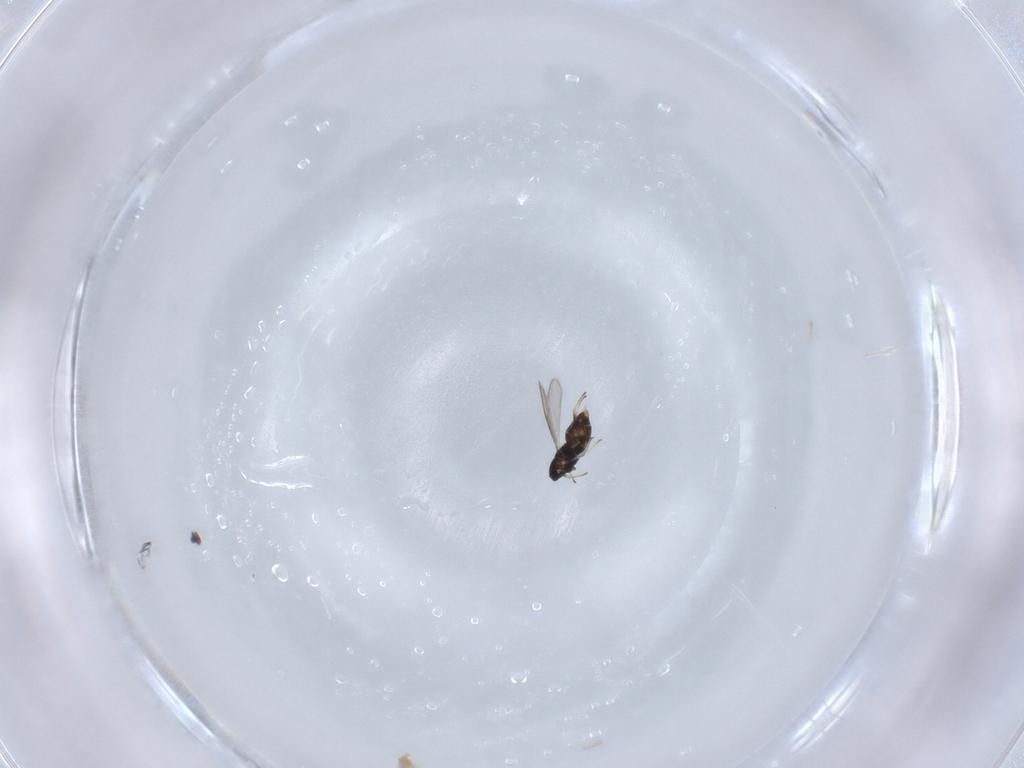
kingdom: Animalia
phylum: Arthropoda
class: Insecta
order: Hymenoptera
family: Aphelinidae
